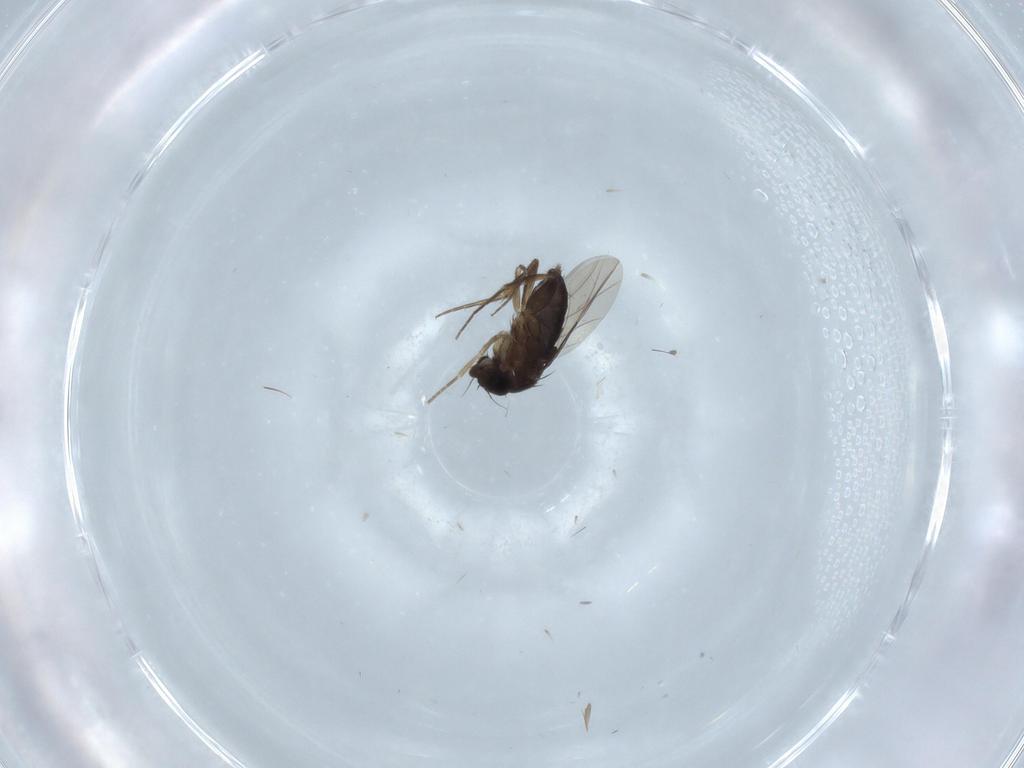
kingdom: Animalia
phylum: Arthropoda
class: Insecta
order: Diptera
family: Phoridae
